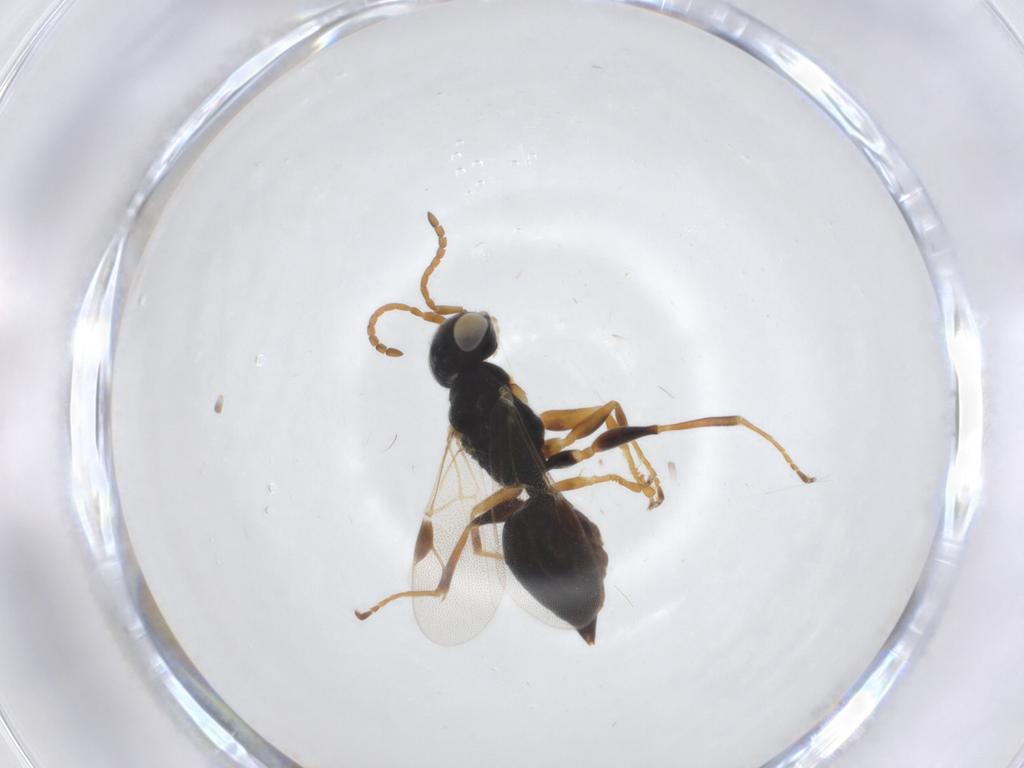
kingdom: Animalia
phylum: Arthropoda
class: Insecta
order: Hymenoptera
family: Dryinidae
